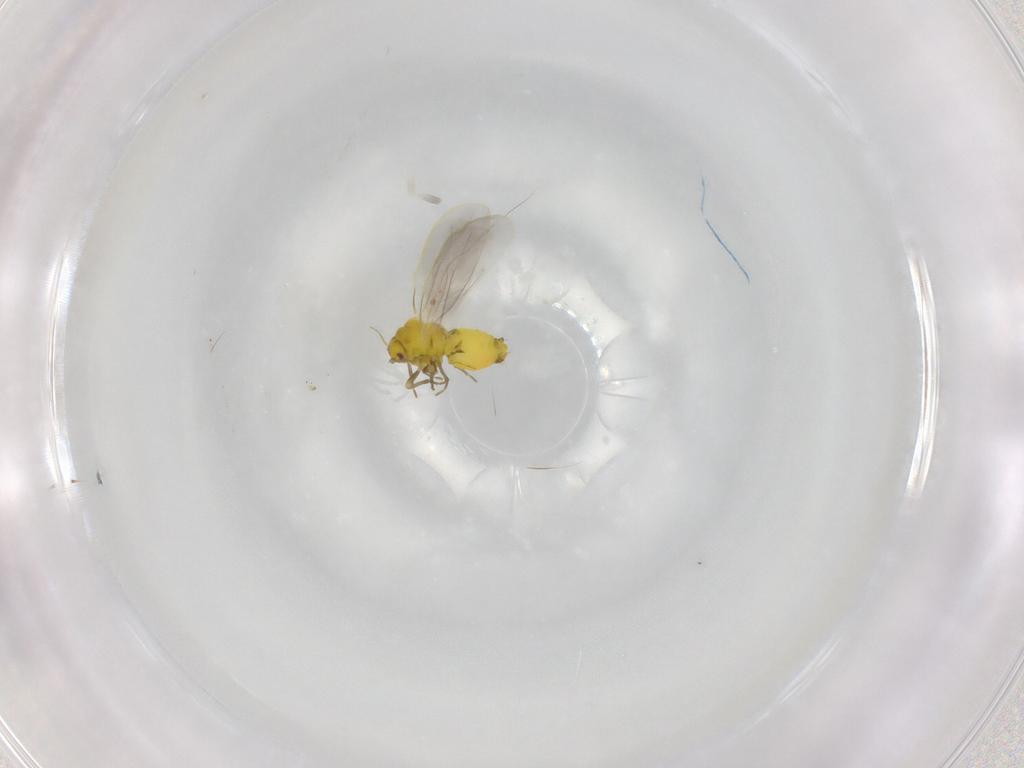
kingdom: Animalia
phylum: Arthropoda
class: Insecta
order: Hemiptera
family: Aleyrodidae
